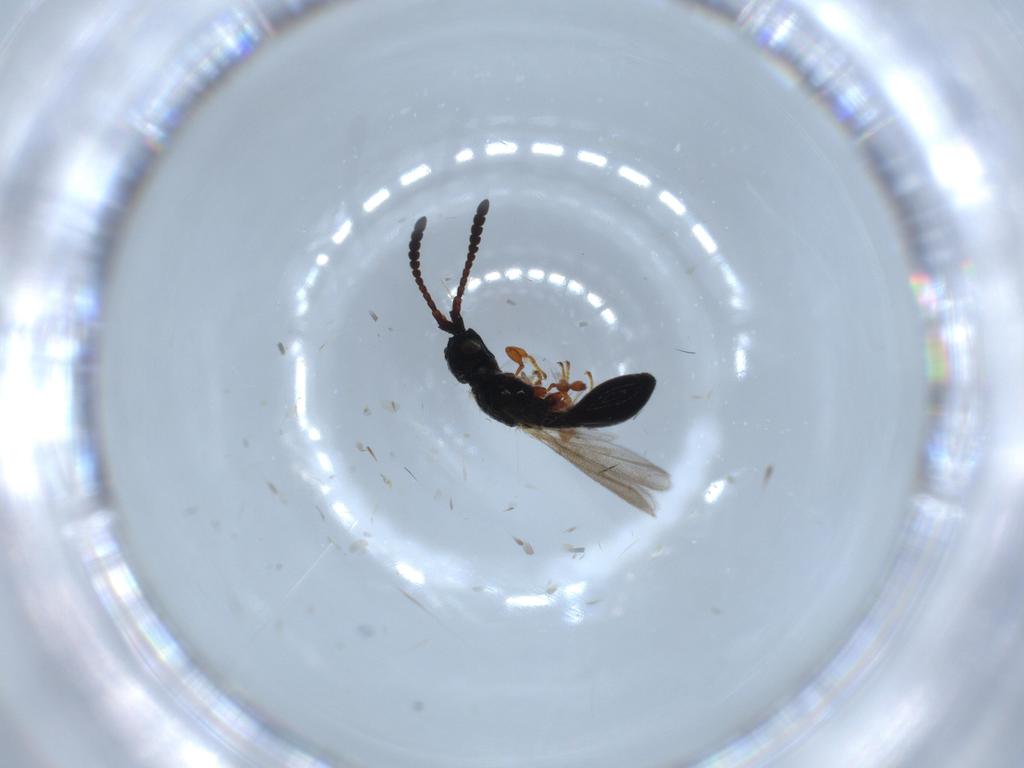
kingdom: Animalia
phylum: Arthropoda
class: Insecta
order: Hymenoptera
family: Diapriidae
